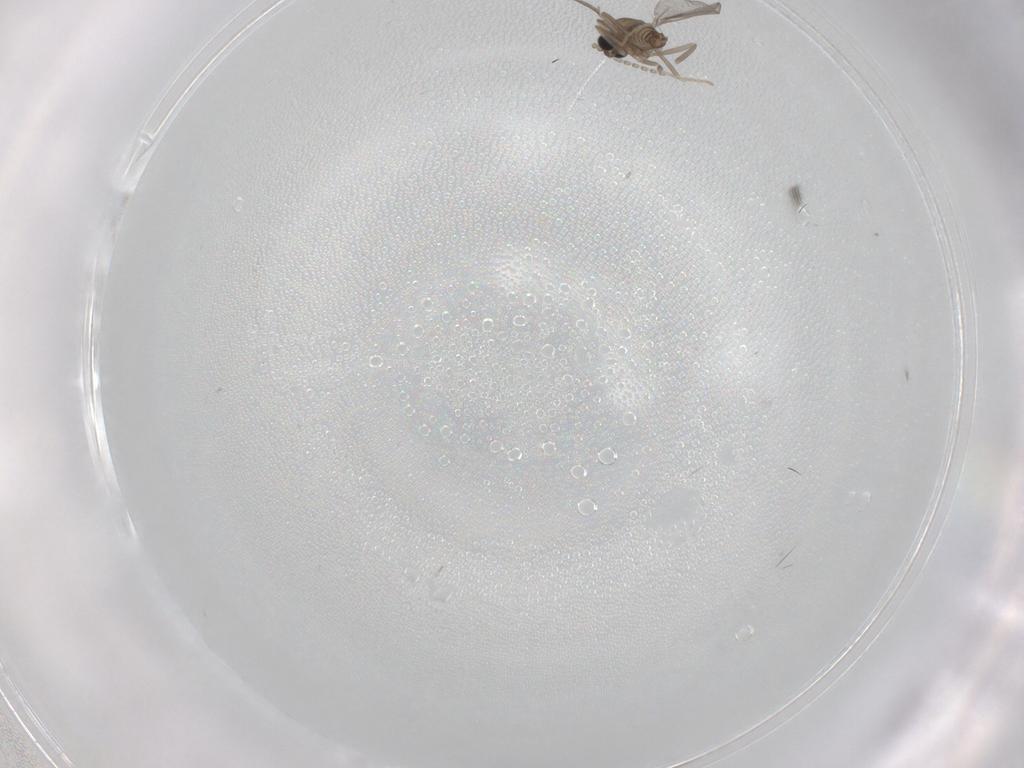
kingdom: Animalia
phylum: Arthropoda
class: Insecta
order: Diptera
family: Cecidomyiidae
